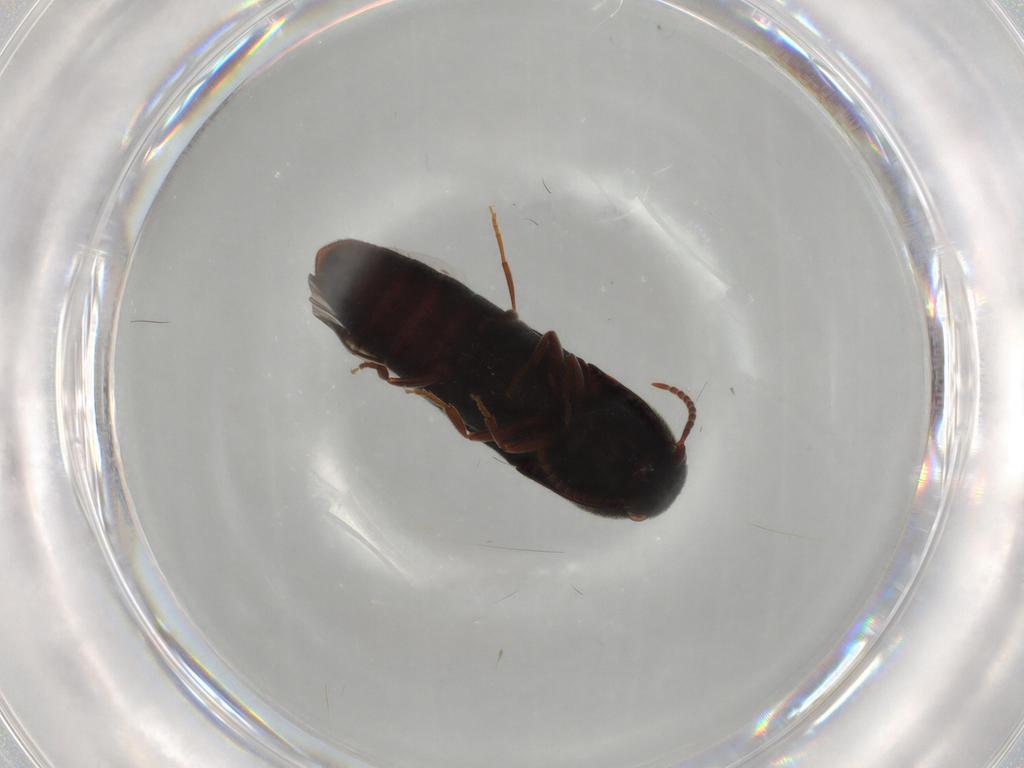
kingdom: Animalia
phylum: Arthropoda
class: Insecta
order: Coleoptera
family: Eucnemidae
